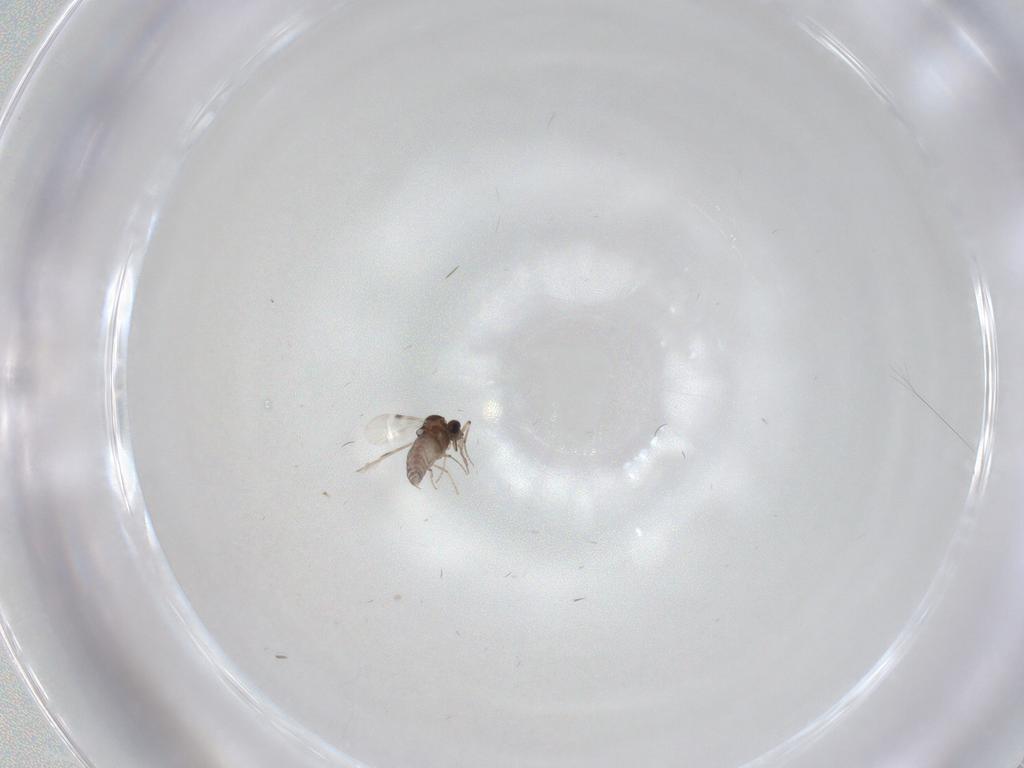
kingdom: Animalia
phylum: Arthropoda
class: Insecta
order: Diptera
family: Ceratopogonidae
